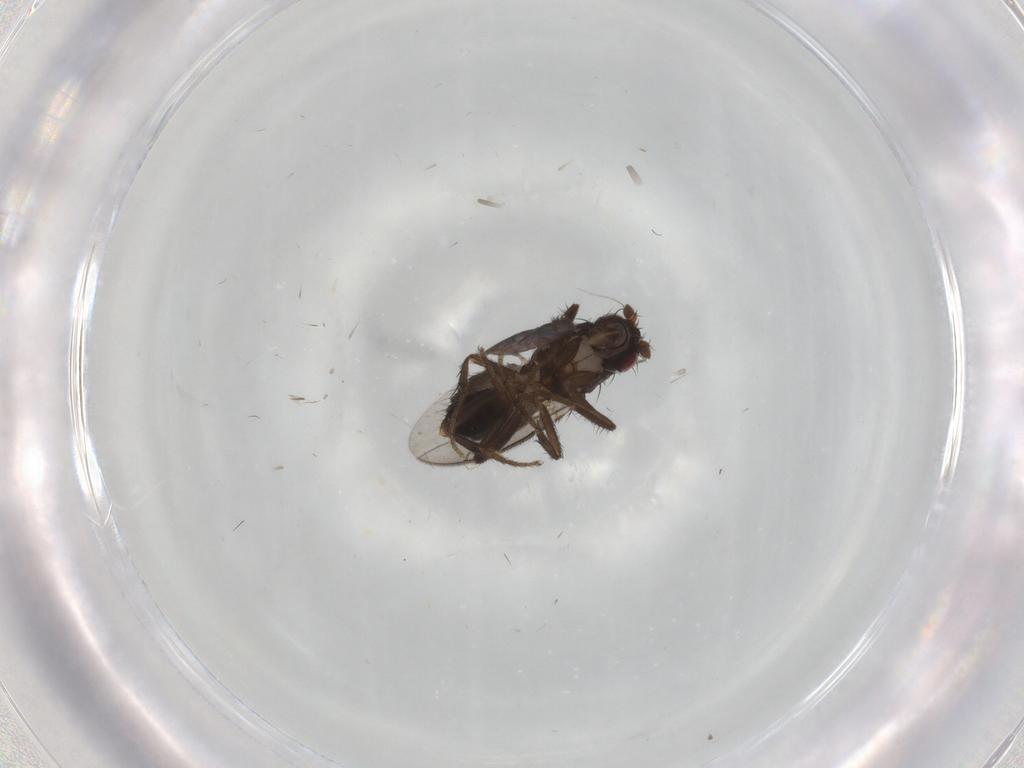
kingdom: Animalia
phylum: Arthropoda
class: Insecta
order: Diptera
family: Sphaeroceridae
